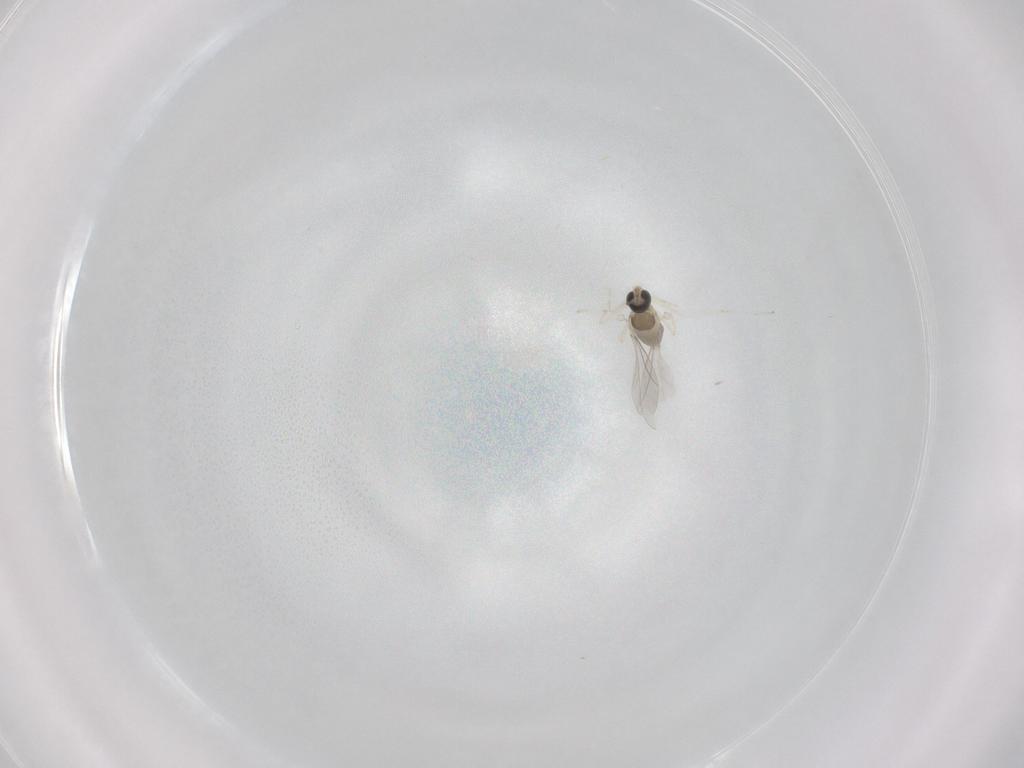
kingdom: Animalia
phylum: Arthropoda
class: Insecta
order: Diptera
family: Cecidomyiidae
